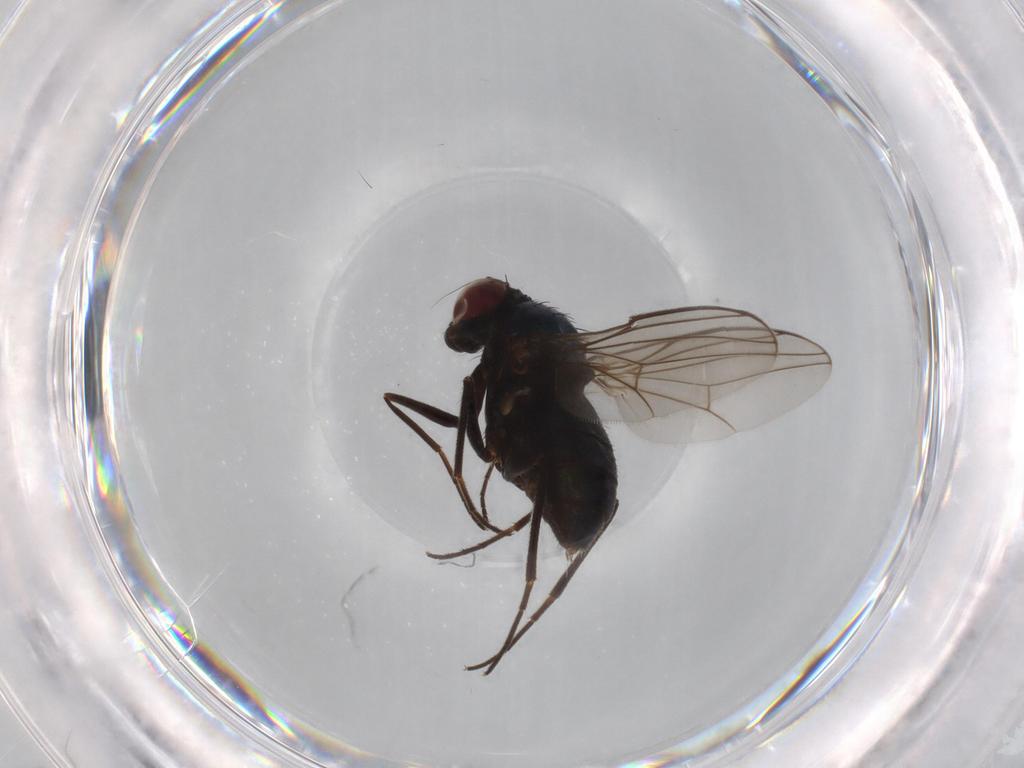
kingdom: Animalia
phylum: Arthropoda
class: Insecta
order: Diptera
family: Dolichopodidae
